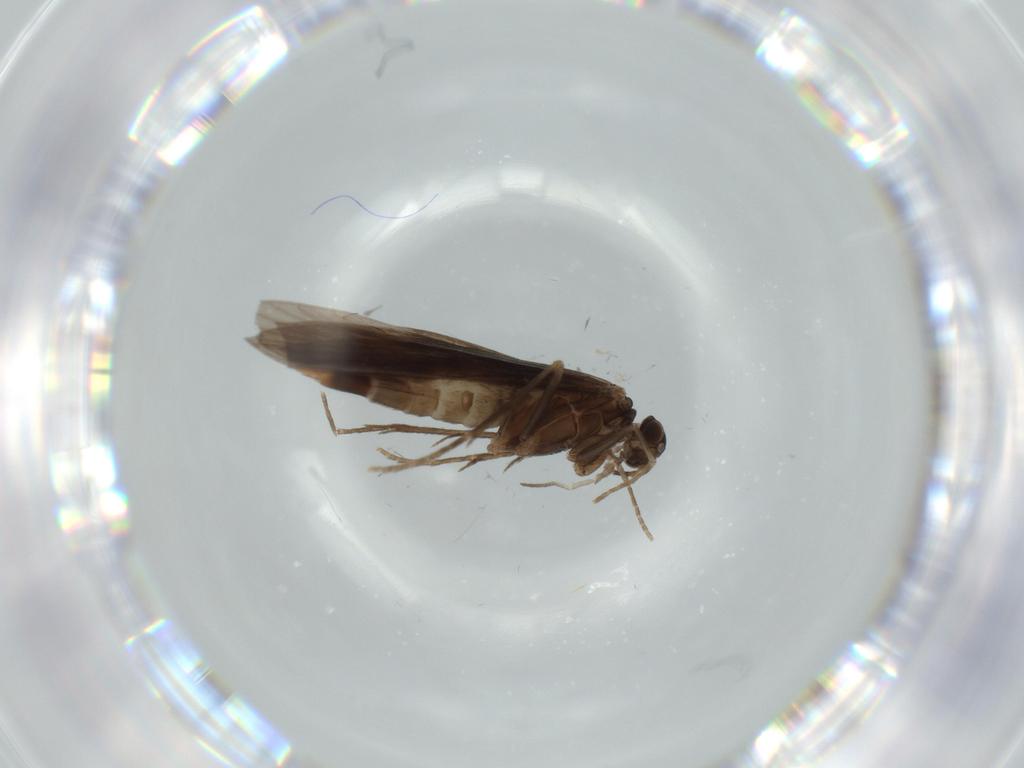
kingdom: Animalia
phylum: Arthropoda
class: Insecta
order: Trichoptera
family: Xiphocentronidae
